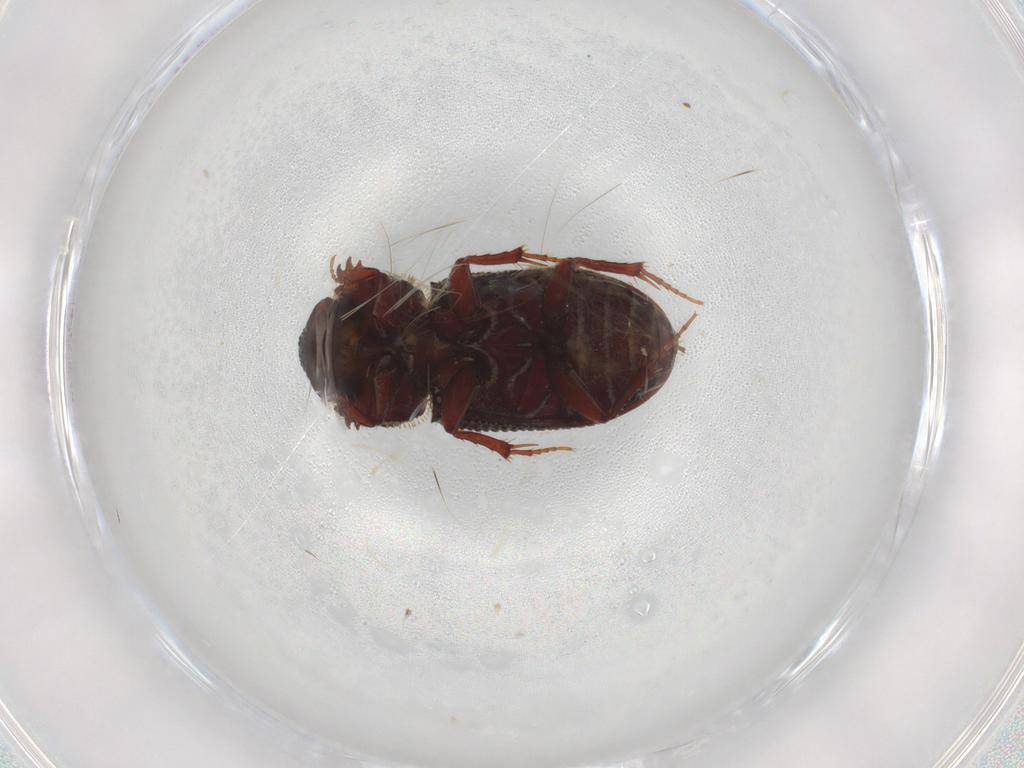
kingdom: Animalia
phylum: Arthropoda
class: Insecta
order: Coleoptera
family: Scarabaeidae
